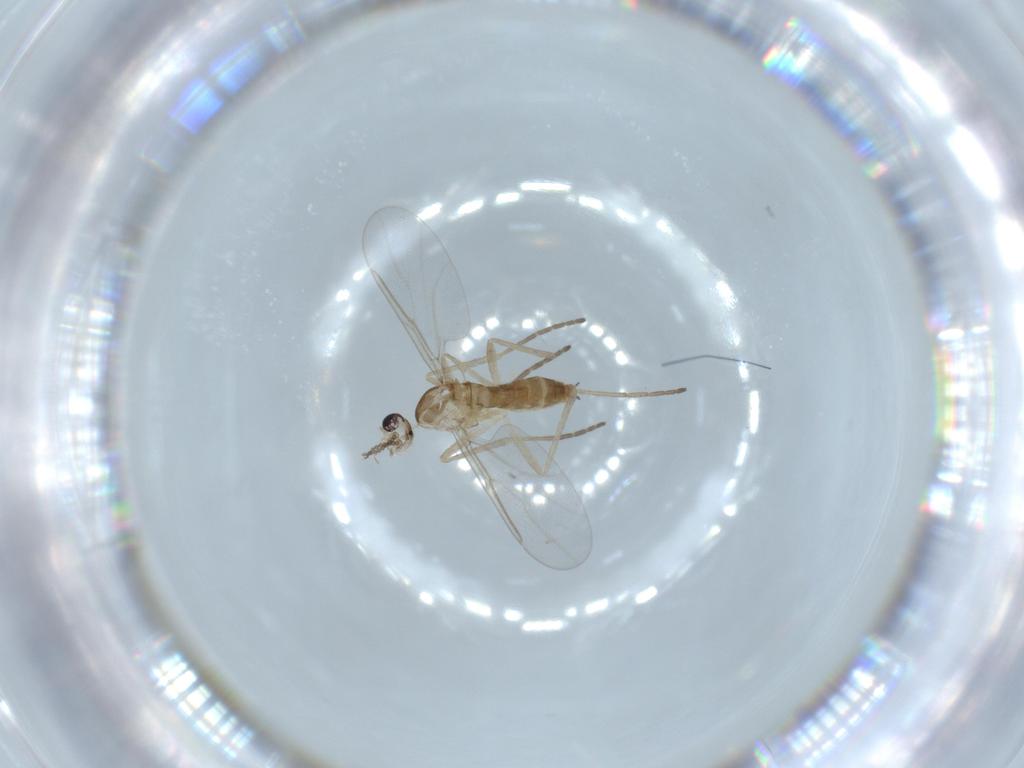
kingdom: Animalia
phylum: Arthropoda
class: Insecta
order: Diptera
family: Cecidomyiidae
